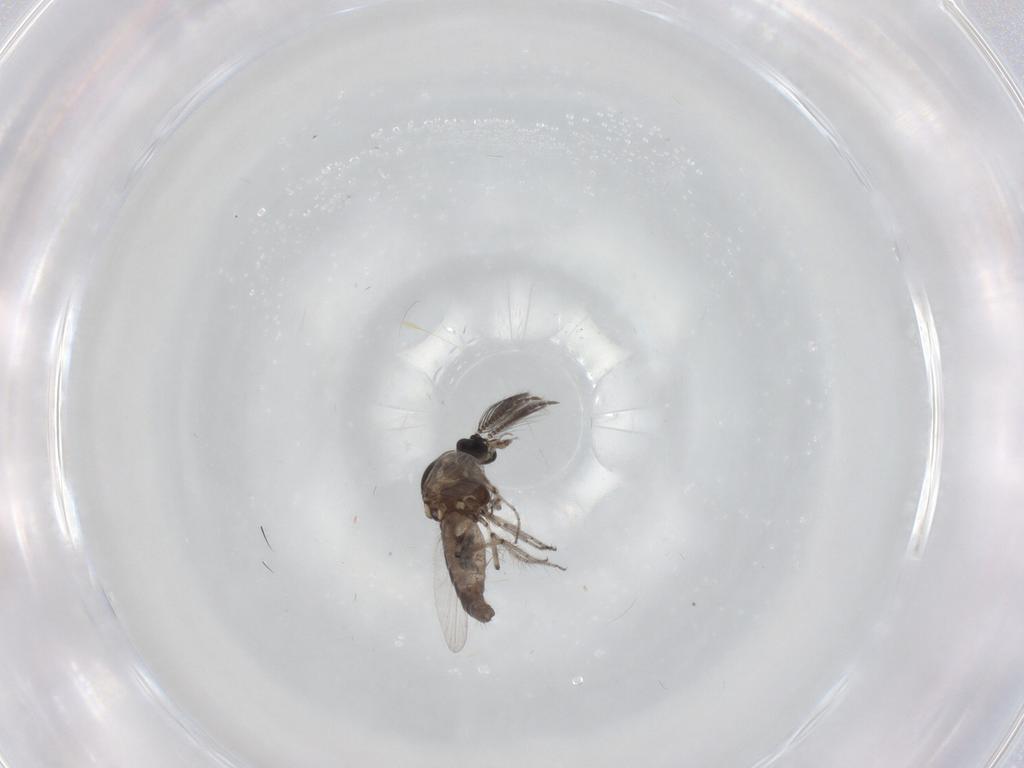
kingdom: Animalia
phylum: Arthropoda
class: Insecta
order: Diptera
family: Ceratopogonidae
